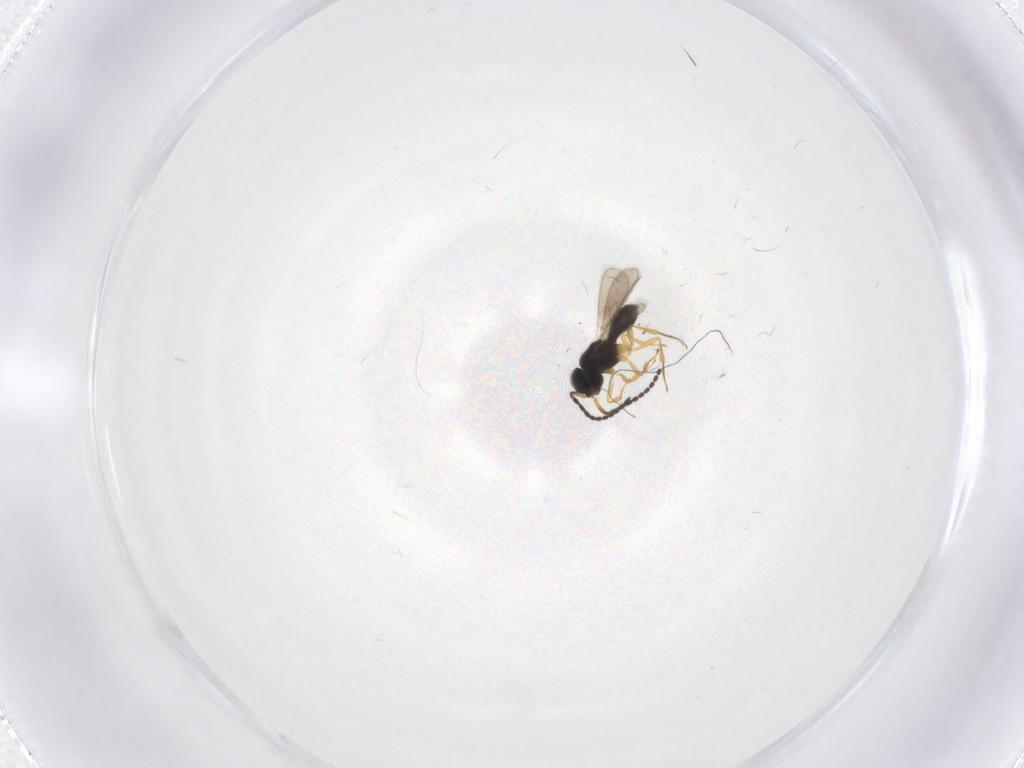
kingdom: Animalia
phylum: Arthropoda
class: Insecta
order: Hymenoptera
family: Scelionidae
